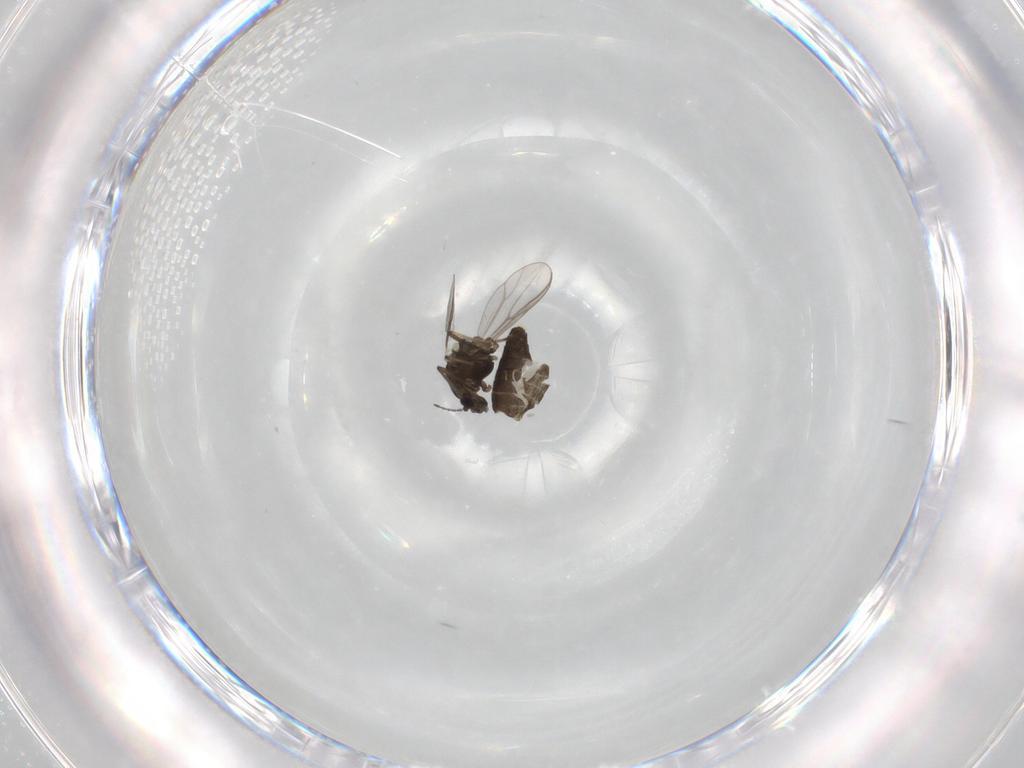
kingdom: Animalia
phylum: Arthropoda
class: Insecta
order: Diptera
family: Chironomidae
